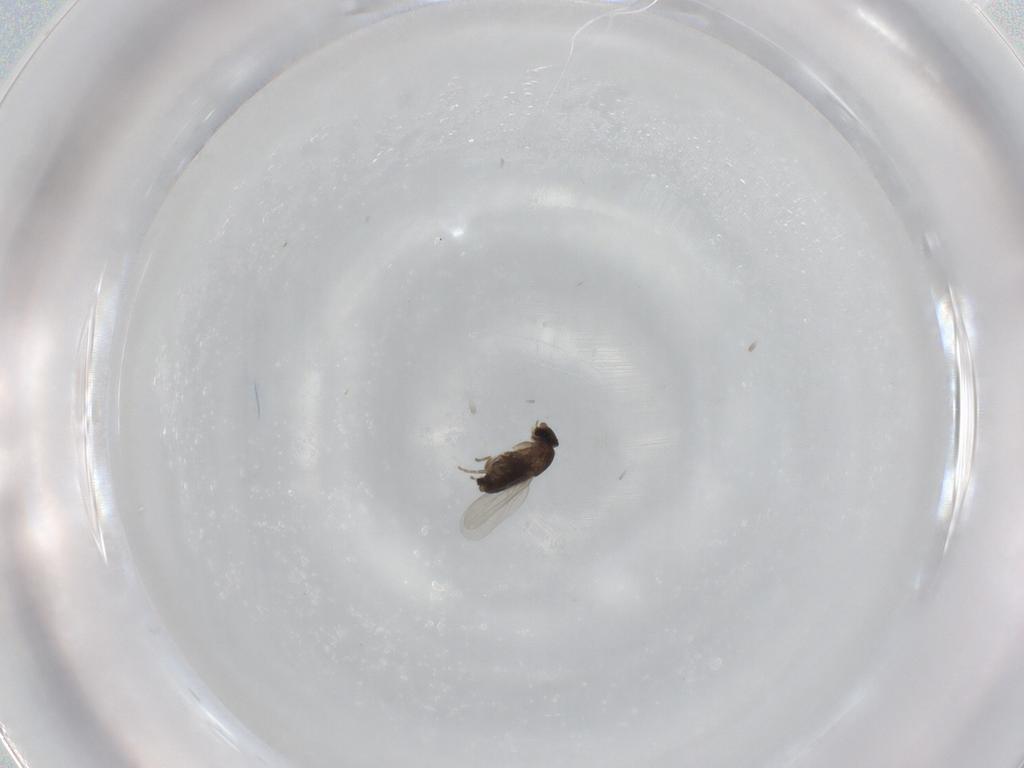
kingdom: Animalia
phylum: Arthropoda
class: Insecta
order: Diptera
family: Phoridae
